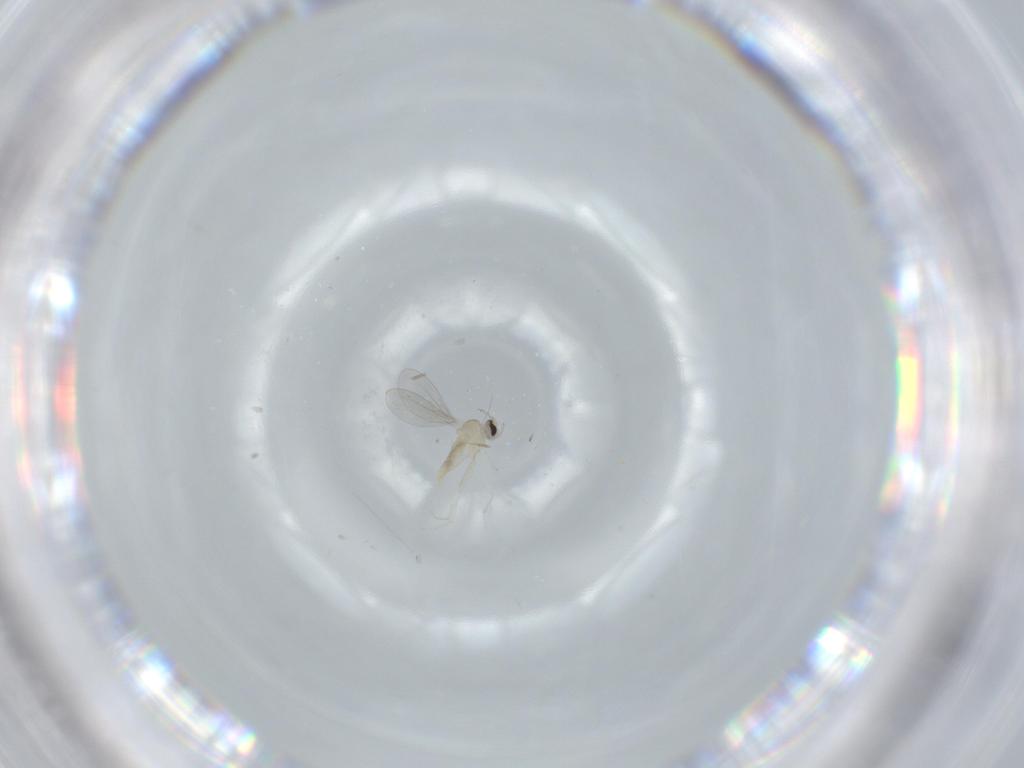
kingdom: Animalia
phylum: Arthropoda
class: Insecta
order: Diptera
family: Cecidomyiidae
